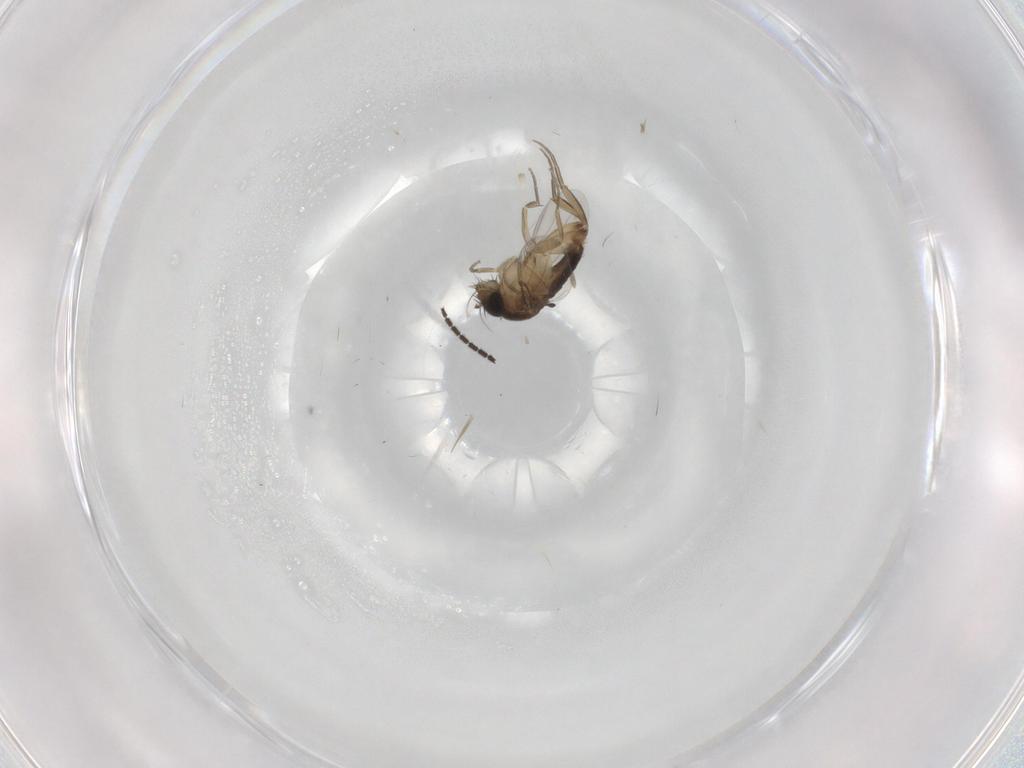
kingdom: Animalia
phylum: Arthropoda
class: Insecta
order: Diptera
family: Phoridae
